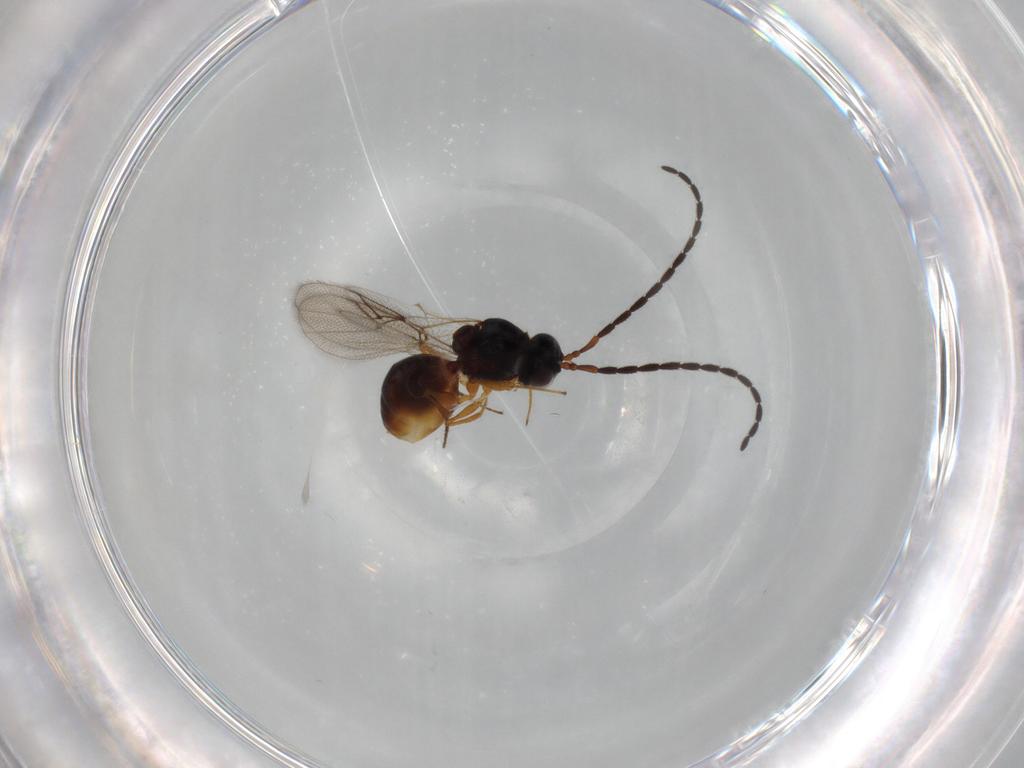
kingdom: Animalia
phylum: Arthropoda
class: Insecta
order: Hymenoptera
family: Figitidae
